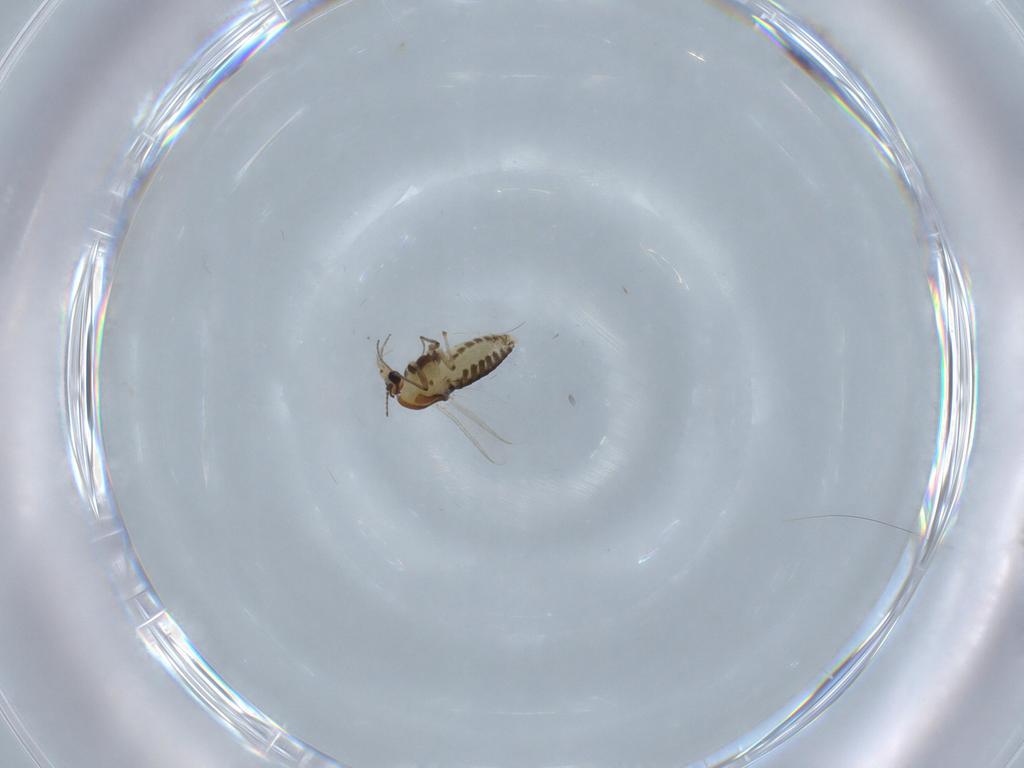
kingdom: Animalia
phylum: Arthropoda
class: Insecta
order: Diptera
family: Chironomidae
